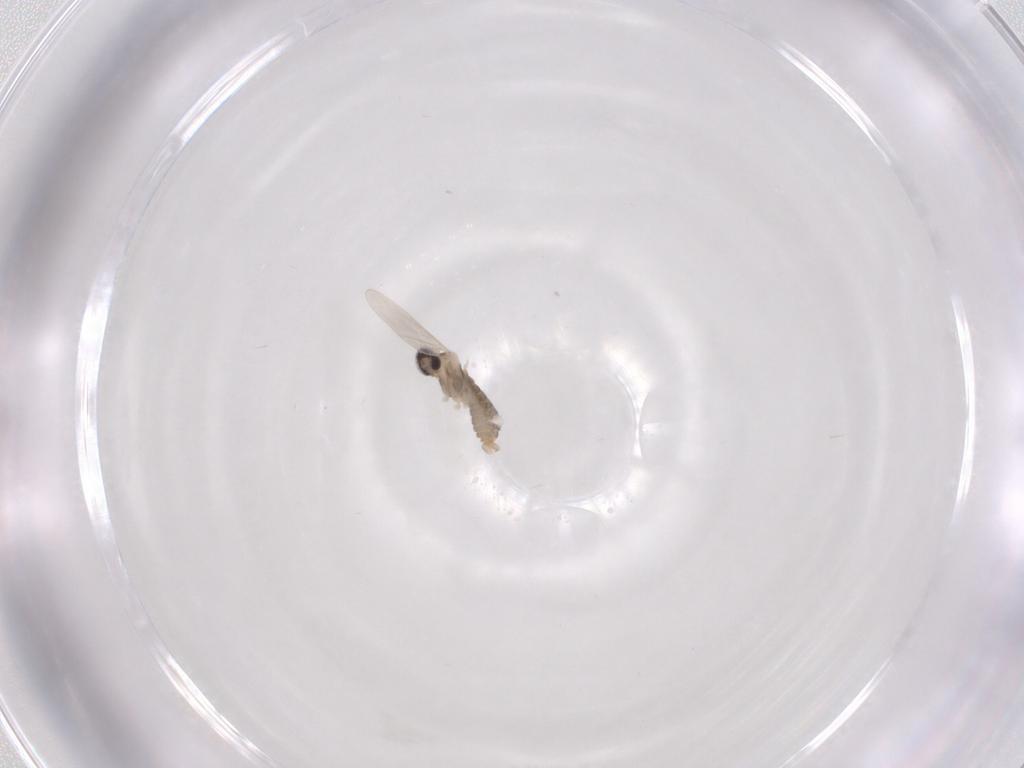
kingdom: Animalia
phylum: Arthropoda
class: Insecta
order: Diptera
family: Cecidomyiidae
